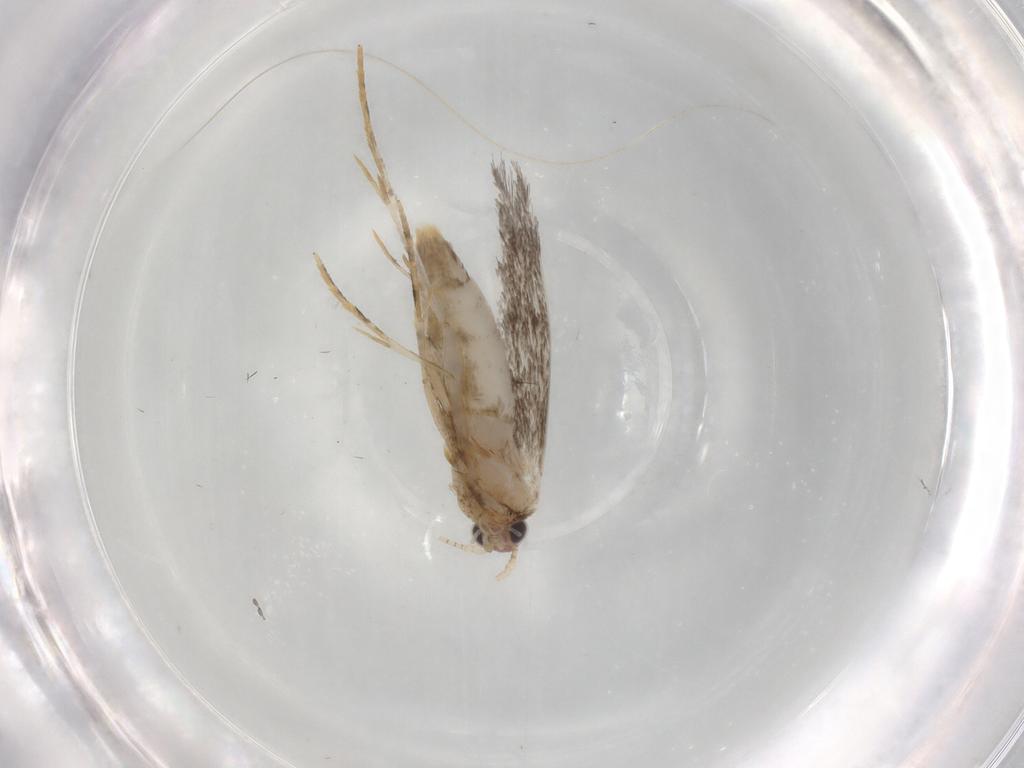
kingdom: Animalia
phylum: Arthropoda
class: Insecta
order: Lepidoptera
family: Tineidae
